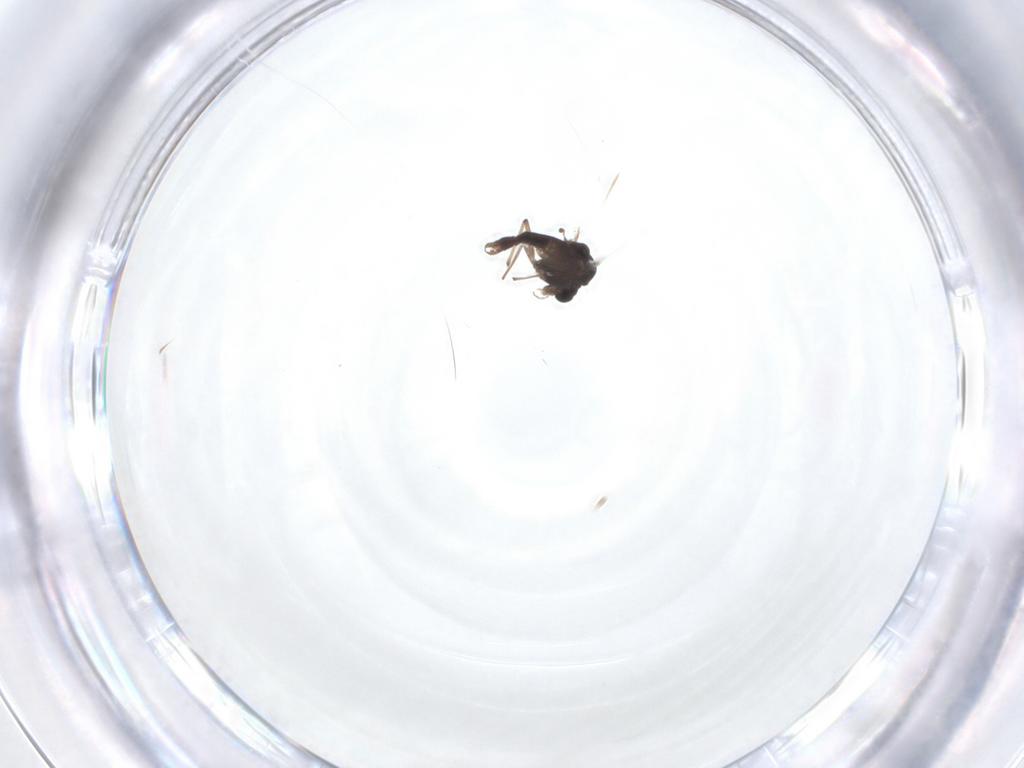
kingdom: Animalia
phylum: Arthropoda
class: Insecta
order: Diptera
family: Chironomidae
